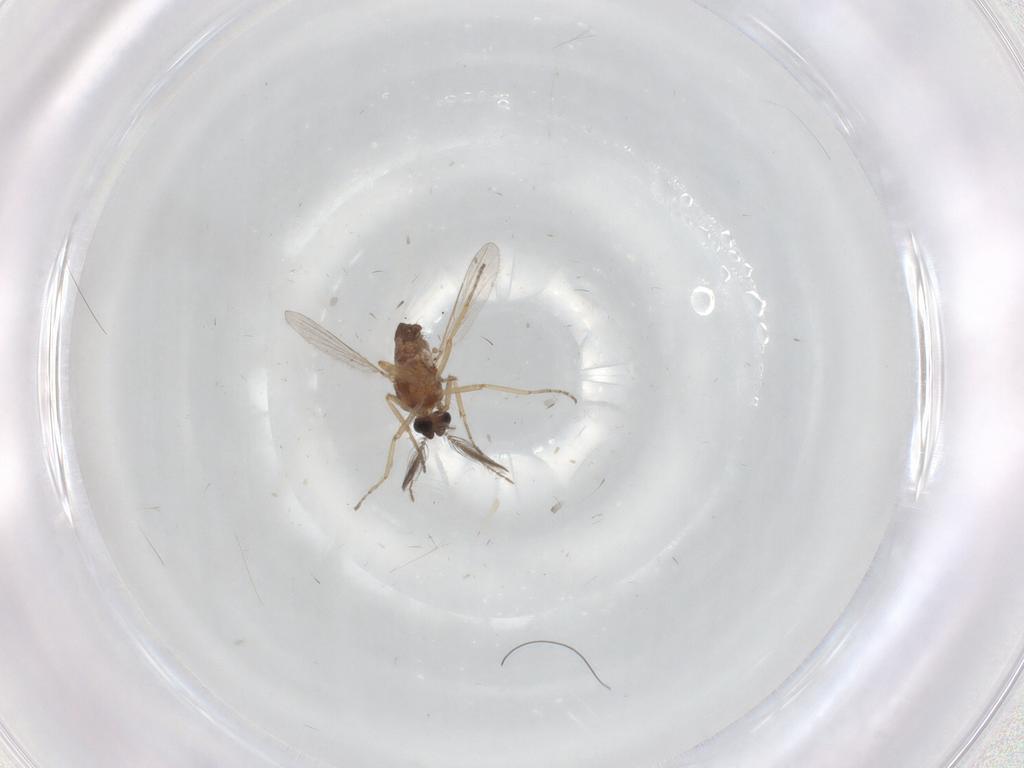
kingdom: Animalia
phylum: Arthropoda
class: Insecta
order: Diptera
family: Ceratopogonidae
